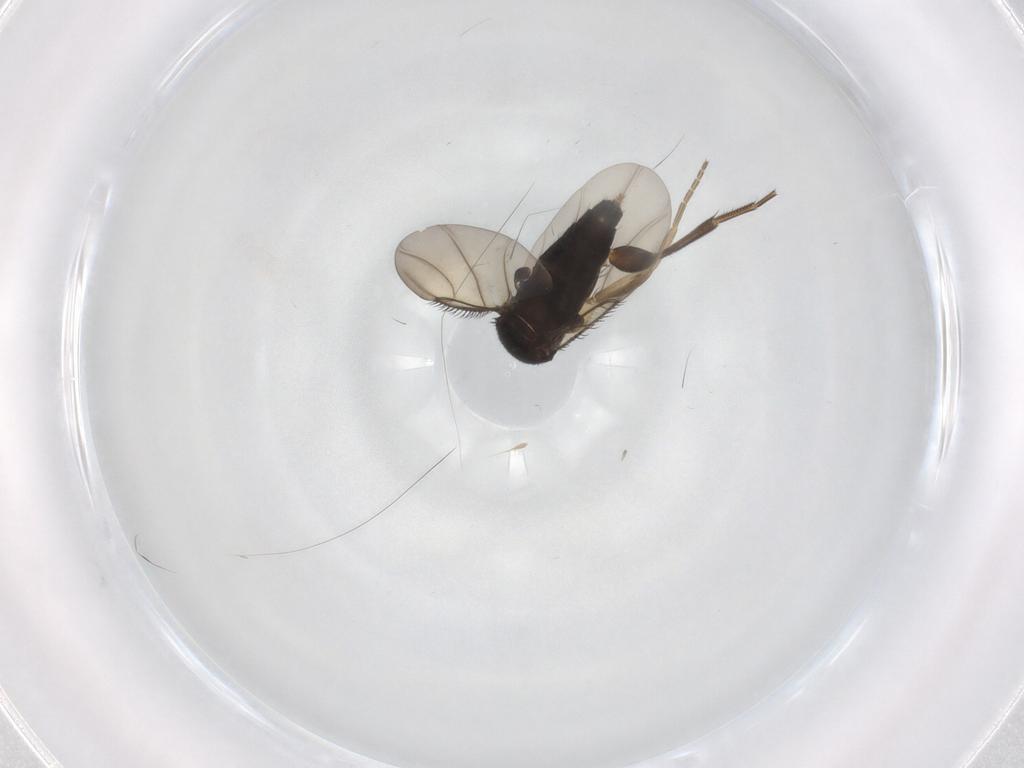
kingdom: Animalia
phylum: Arthropoda
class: Insecta
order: Diptera
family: Phoridae
